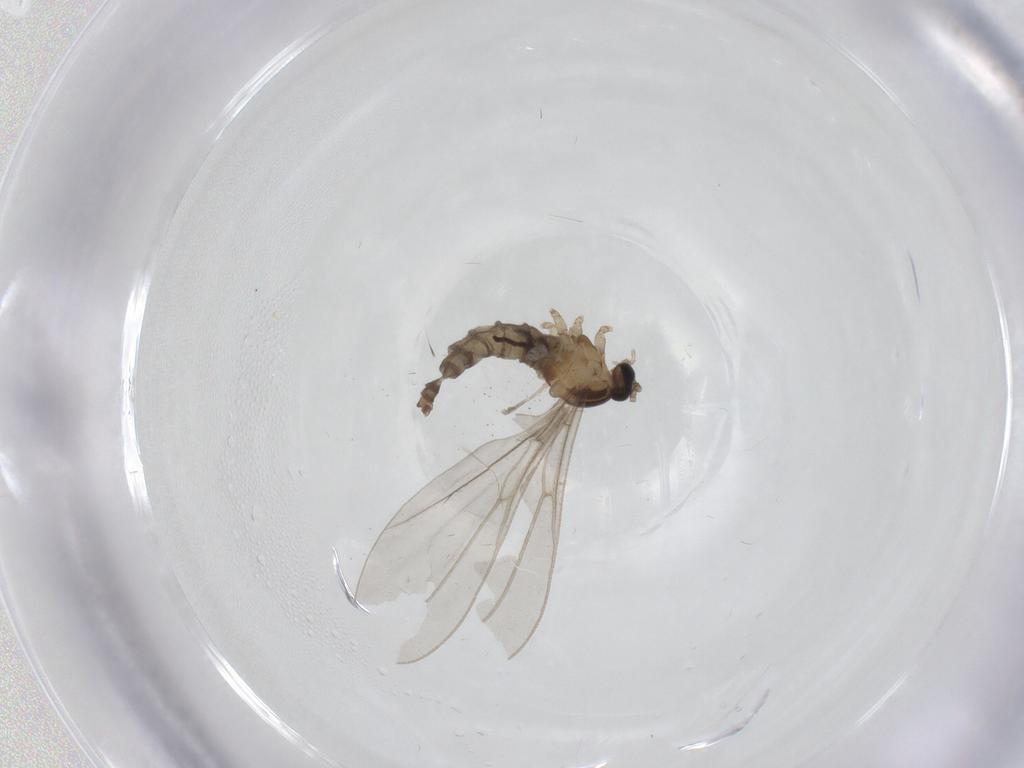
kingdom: Animalia
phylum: Arthropoda
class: Insecta
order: Diptera
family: Cecidomyiidae
